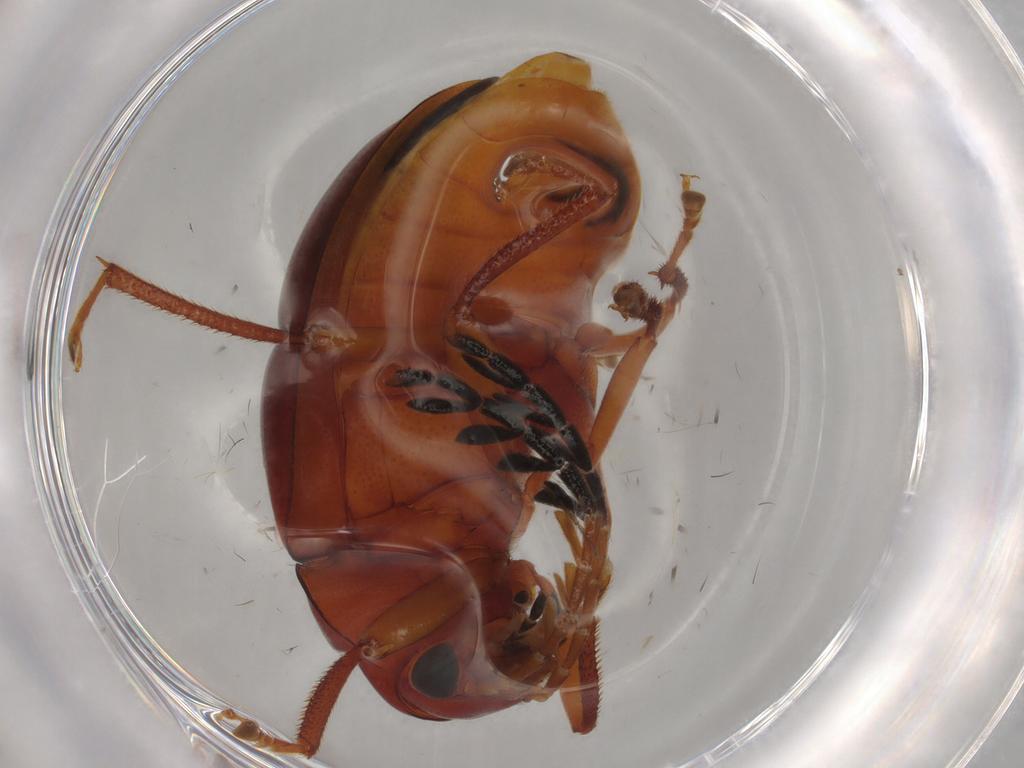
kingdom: Animalia
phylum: Arthropoda
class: Insecta
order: Coleoptera
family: Ptilodactylidae
